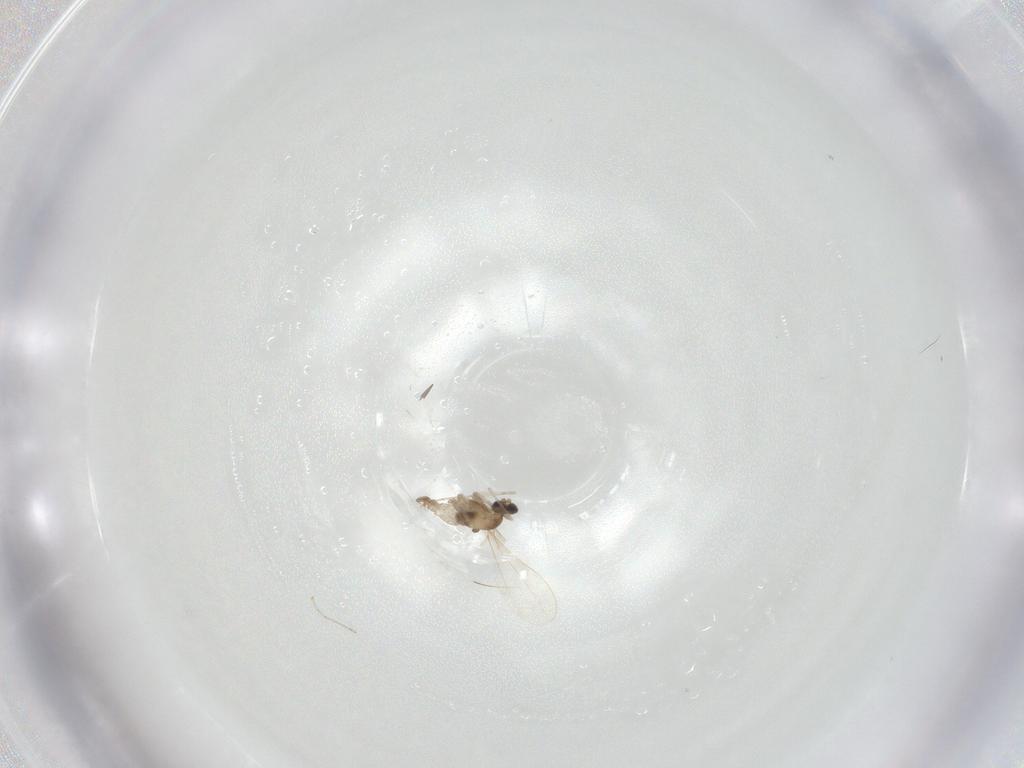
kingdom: Animalia
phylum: Arthropoda
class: Insecta
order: Diptera
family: Cecidomyiidae
